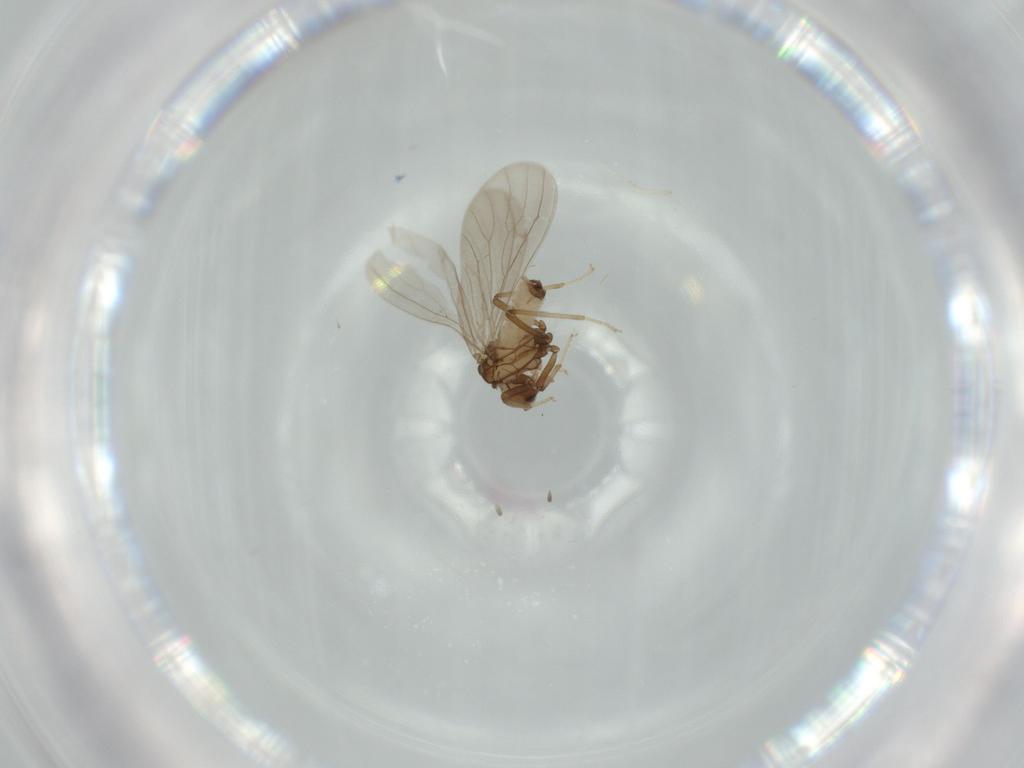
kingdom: Animalia
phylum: Arthropoda
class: Insecta
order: Neuroptera
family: Coniopterygidae
